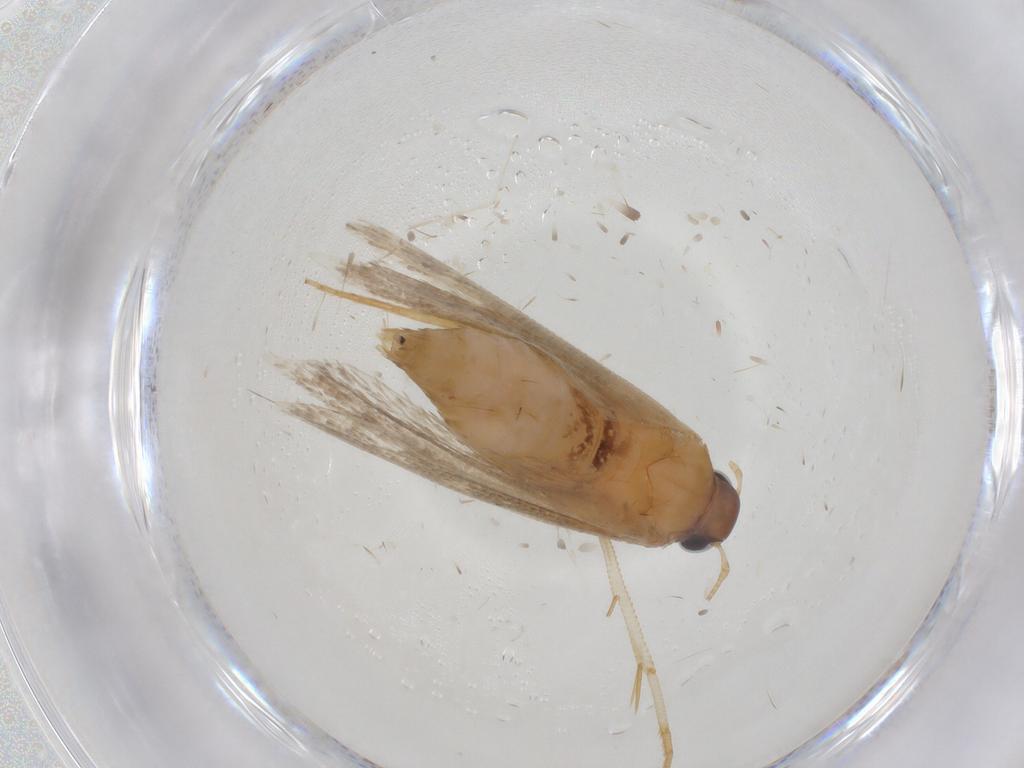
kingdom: Animalia
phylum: Arthropoda
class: Insecta
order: Lepidoptera
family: Gelechiidae
